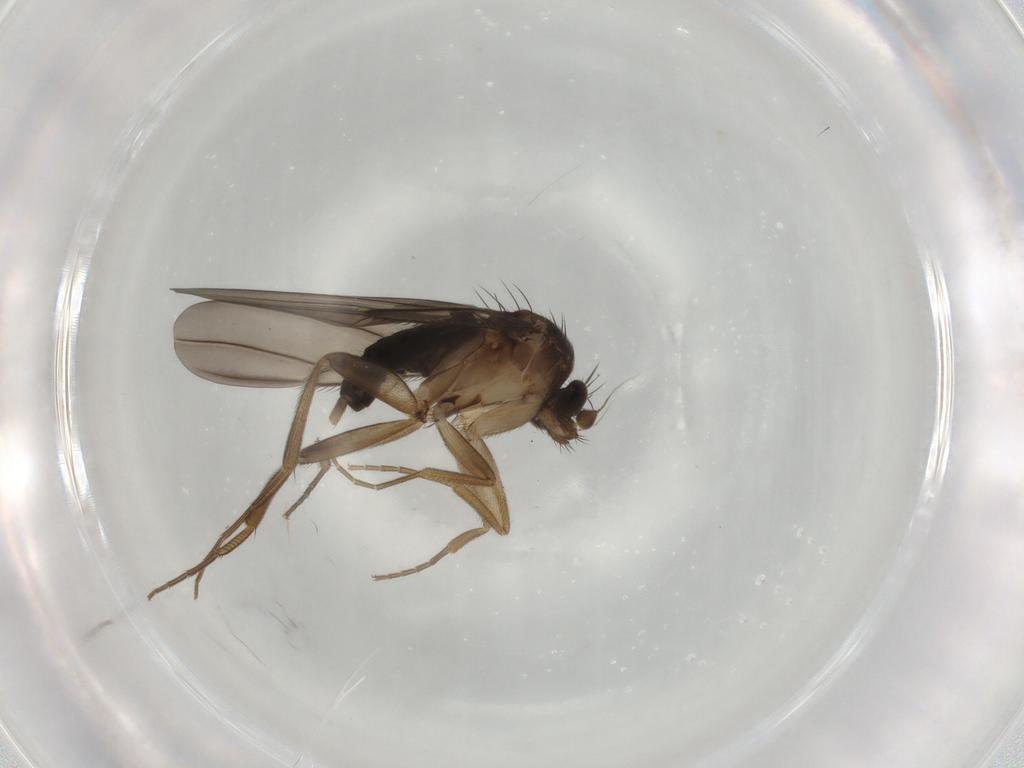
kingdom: Animalia
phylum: Arthropoda
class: Insecta
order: Diptera
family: Phoridae
